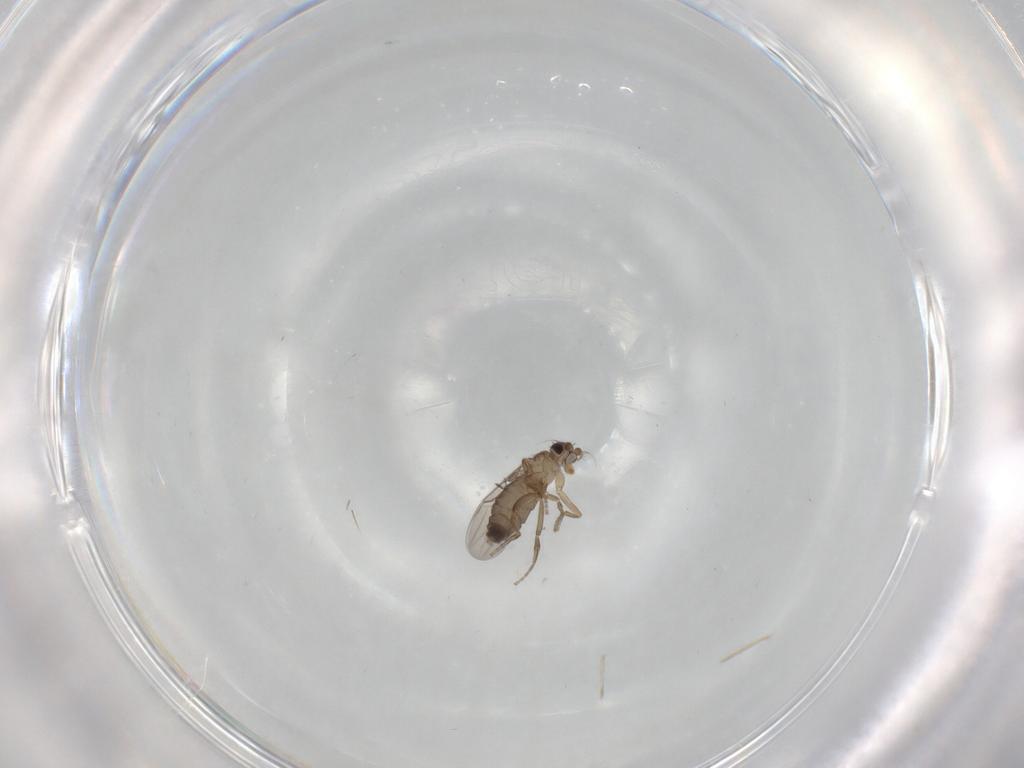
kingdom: Animalia
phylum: Arthropoda
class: Insecta
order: Diptera
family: Phoridae
